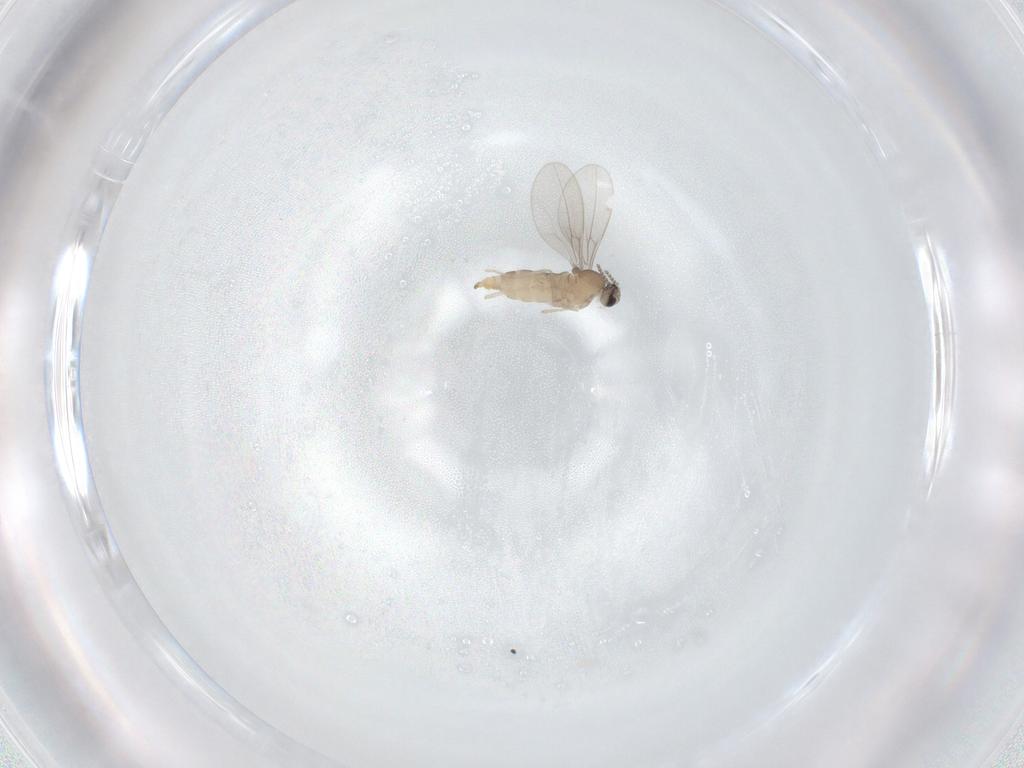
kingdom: Animalia
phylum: Arthropoda
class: Insecta
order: Diptera
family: Cecidomyiidae
